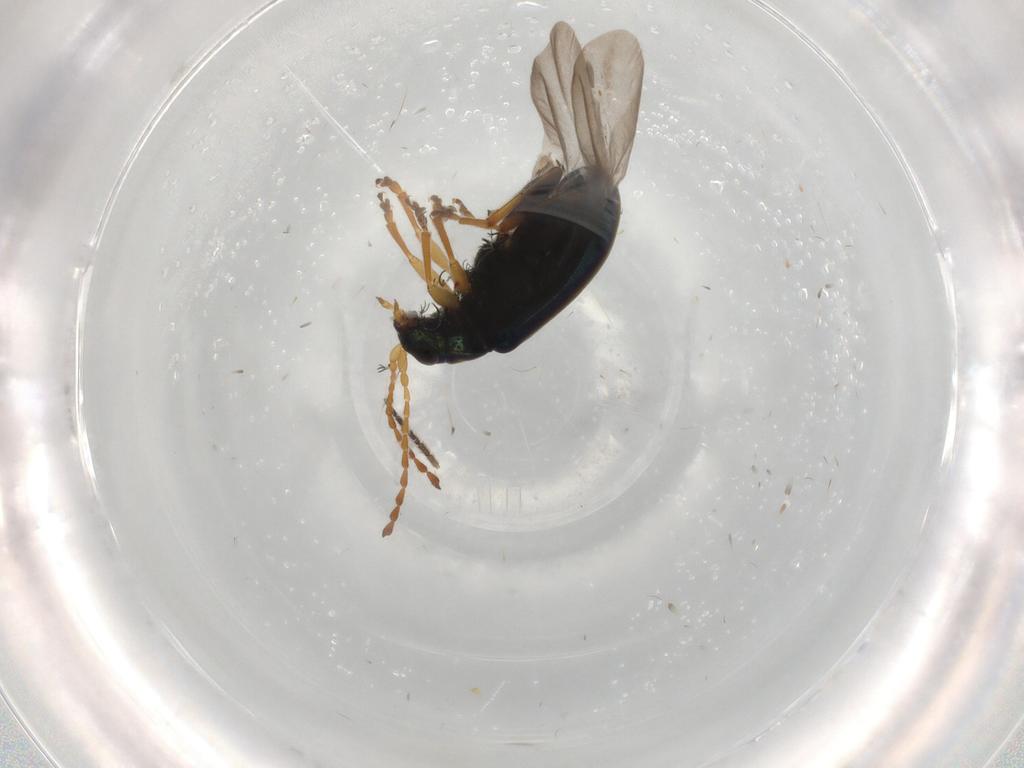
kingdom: Animalia
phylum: Arthropoda
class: Insecta
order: Coleoptera
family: Chrysomelidae
